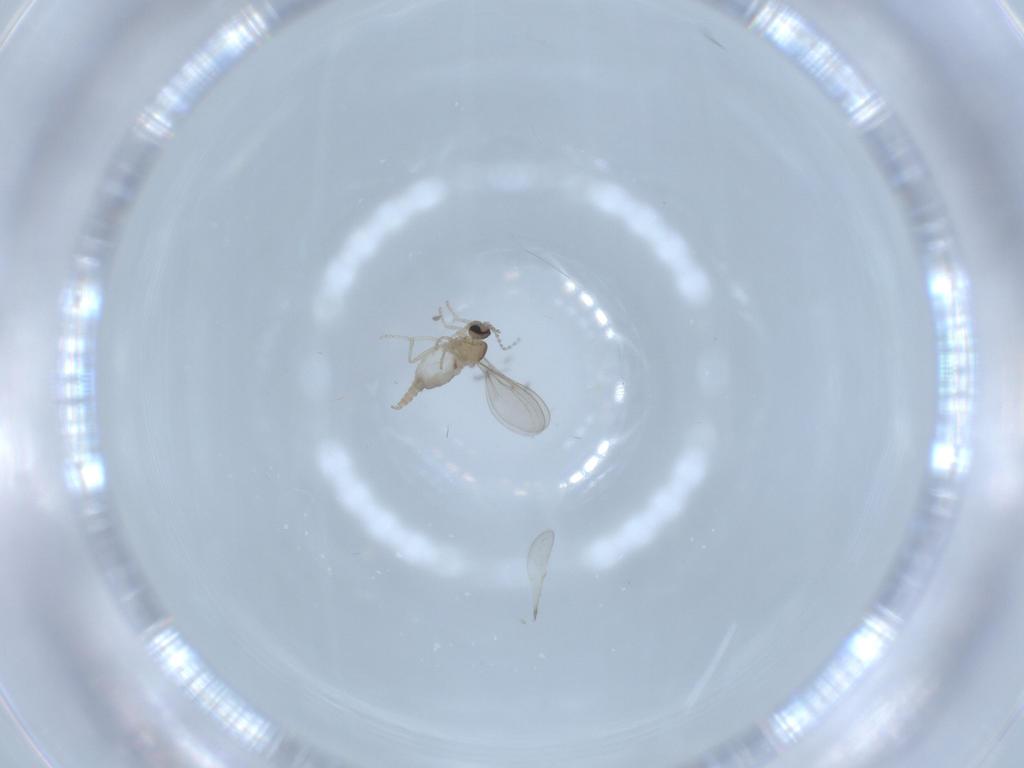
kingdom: Animalia
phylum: Arthropoda
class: Insecta
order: Diptera
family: Cecidomyiidae
